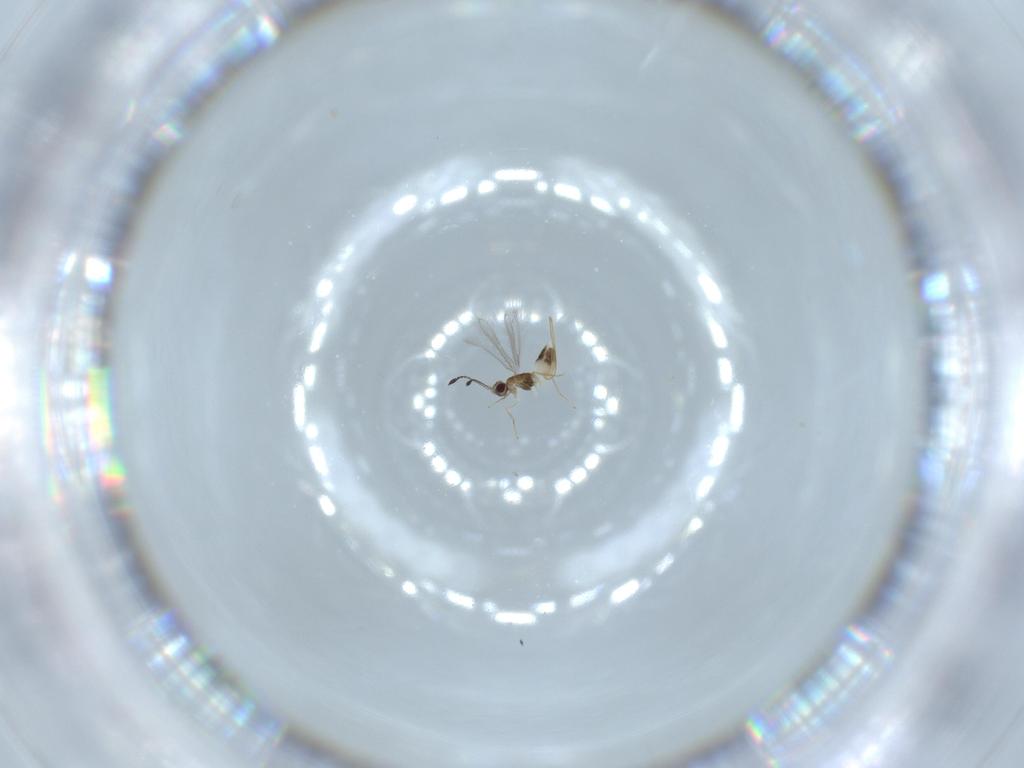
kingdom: Animalia
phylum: Arthropoda
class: Insecta
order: Hymenoptera
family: Mymaridae
